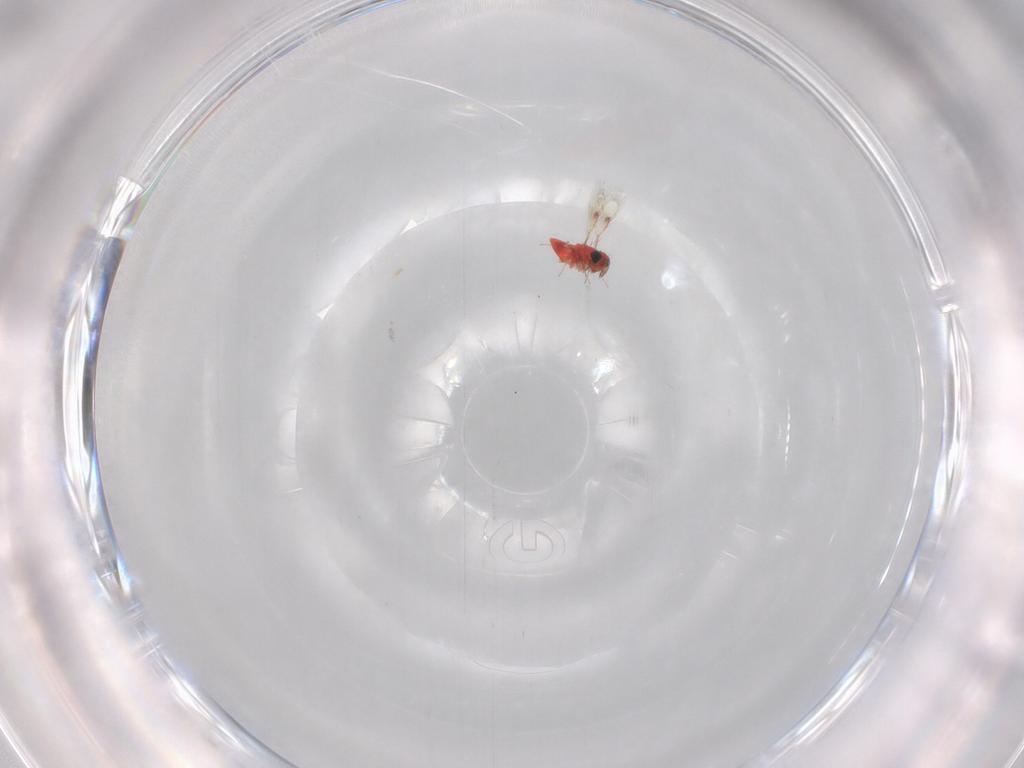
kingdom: Animalia
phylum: Arthropoda
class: Insecta
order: Hymenoptera
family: Trichogrammatidae
